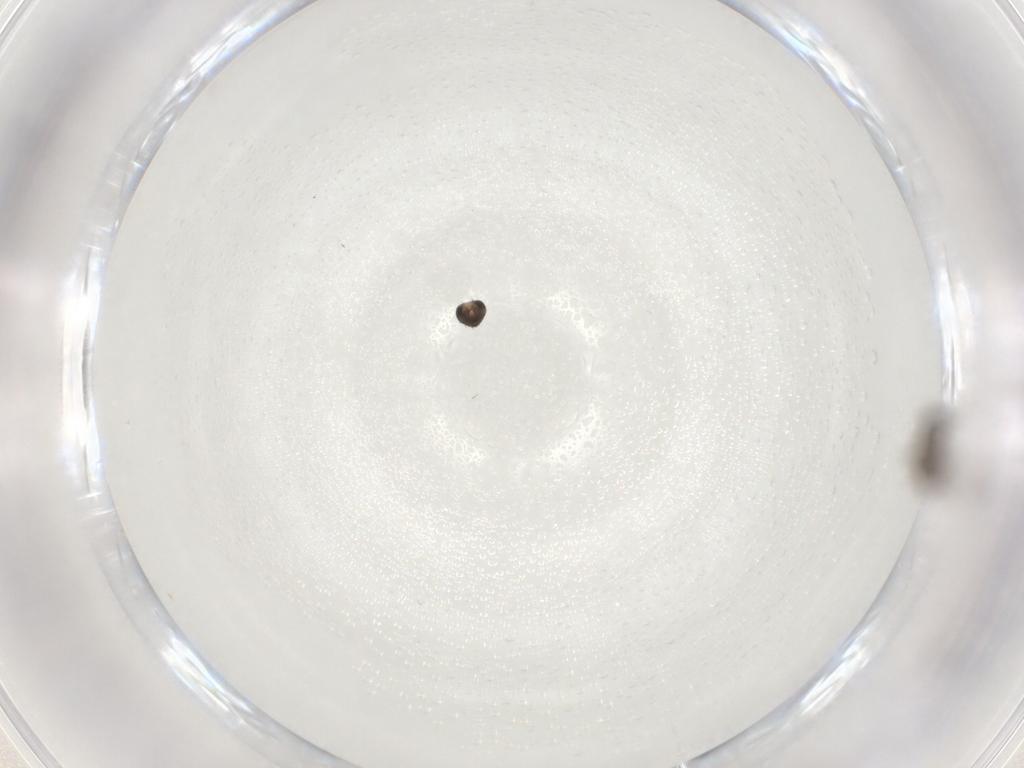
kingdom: Animalia
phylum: Arthropoda
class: Insecta
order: Diptera
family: Phoridae
